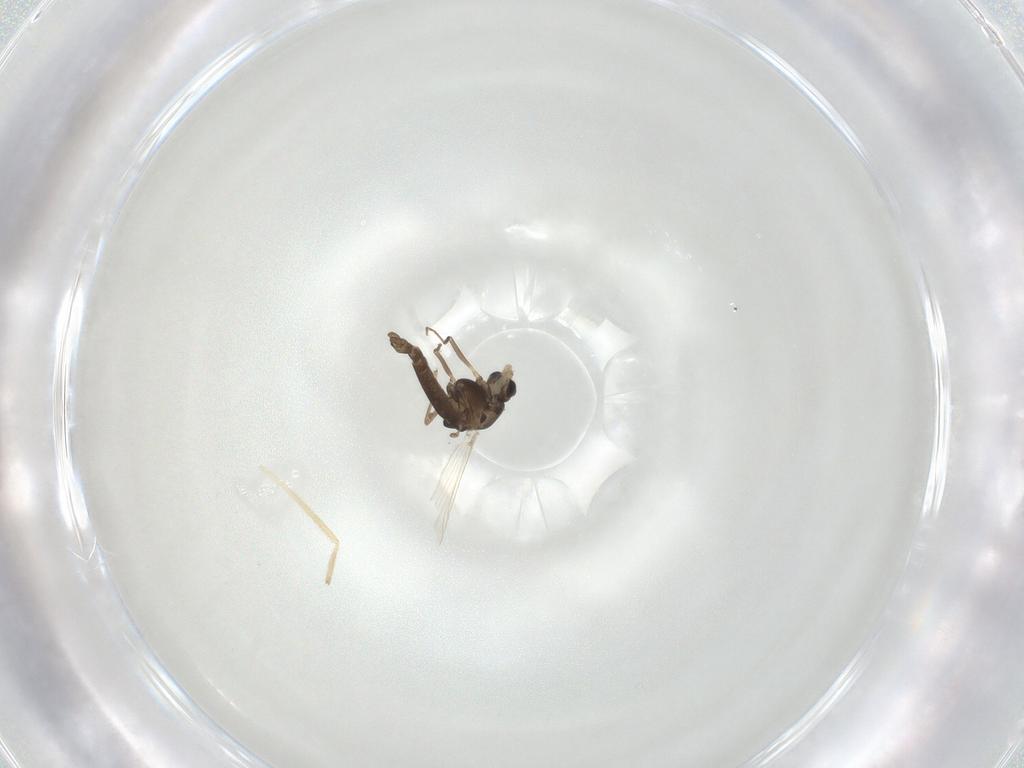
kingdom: Animalia
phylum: Arthropoda
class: Insecta
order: Diptera
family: Chironomidae
